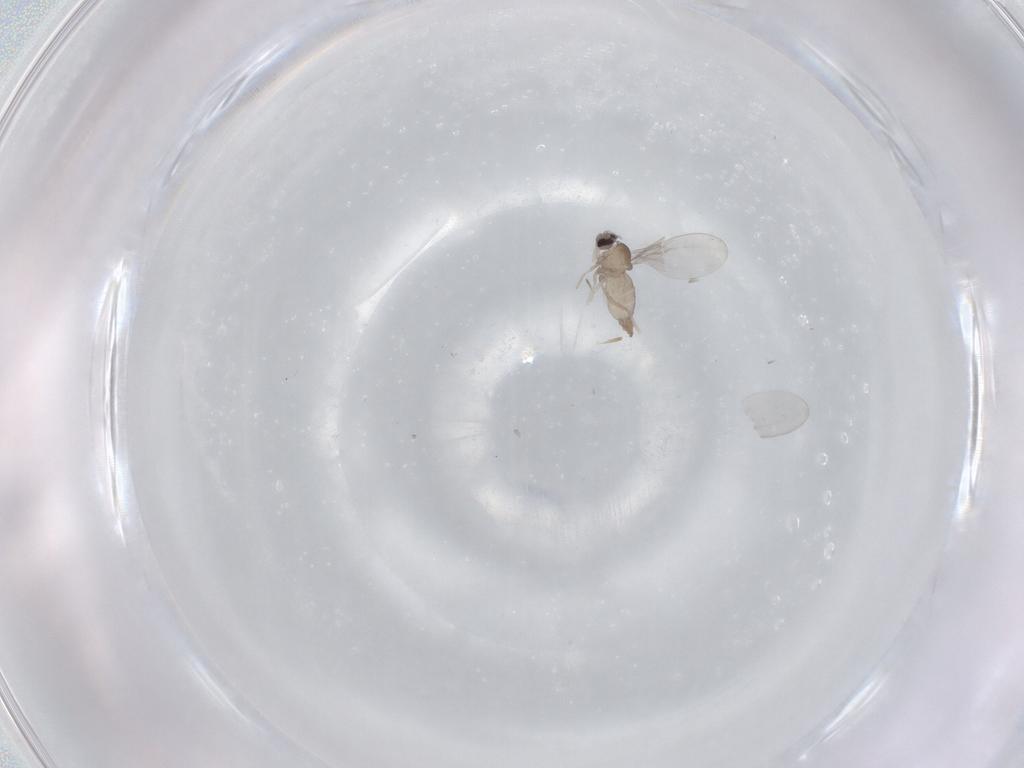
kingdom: Animalia
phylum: Arthropoda
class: Insecta
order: Diptera
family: Cecidomyiidae
